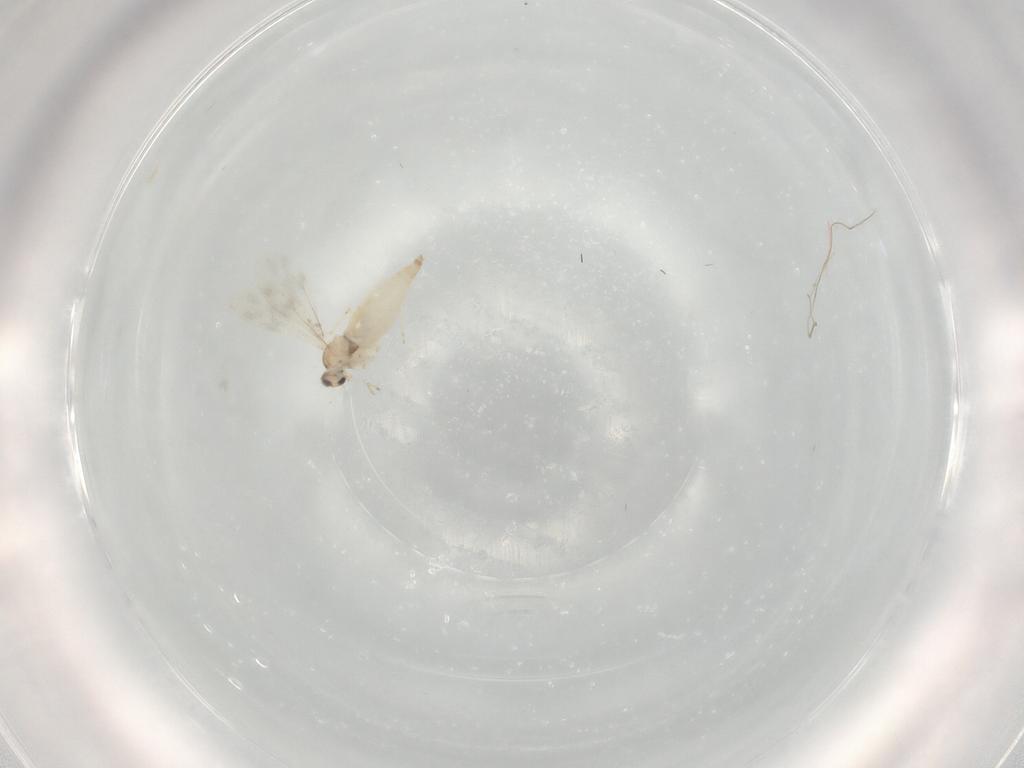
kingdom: Animalia
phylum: Arthropoda
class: Insecta
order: Diptera
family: Cecidomyiidae
